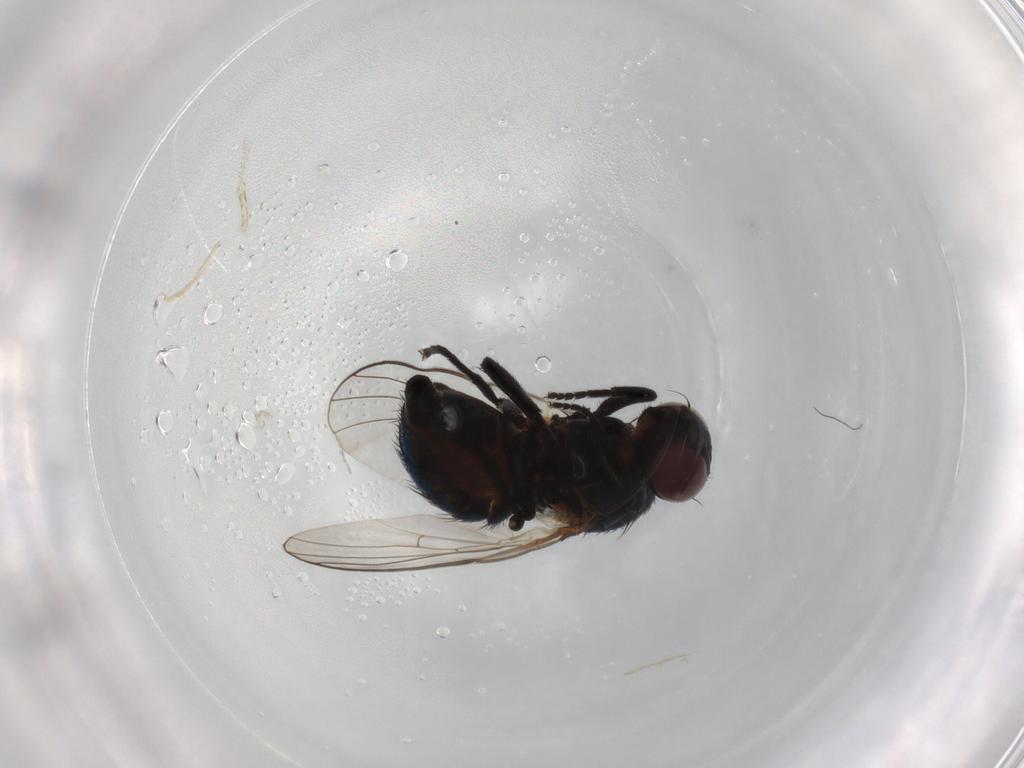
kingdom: Animalia
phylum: Arthropoda
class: Insecta
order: Diptera
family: Agromyzidae
